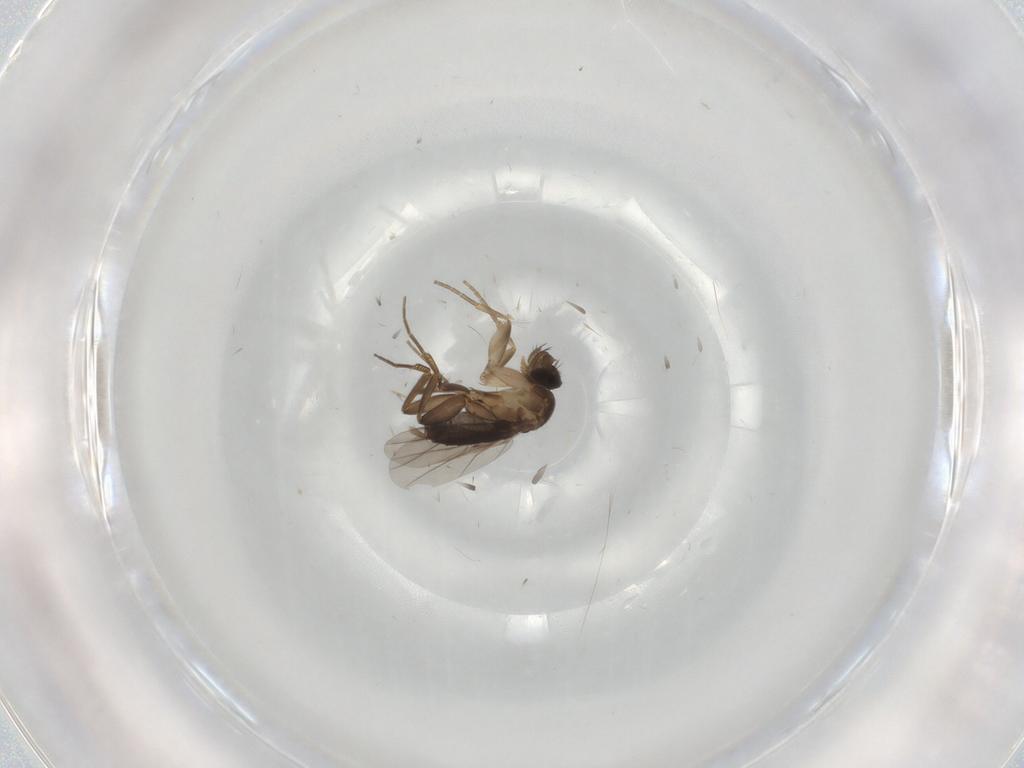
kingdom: Animalia
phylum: Arthropoda
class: Insecta
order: Diptera
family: Phoridae
